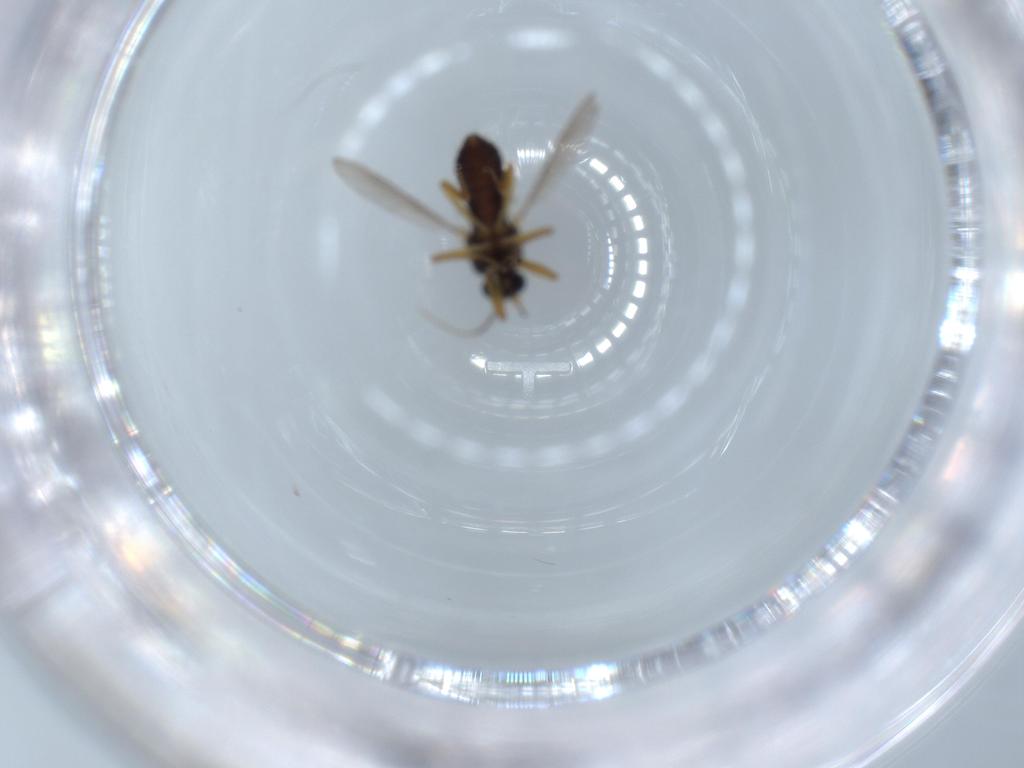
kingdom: Animalia
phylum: Arthropoda
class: Insecta
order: Diptera
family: Ceratopogonidae
